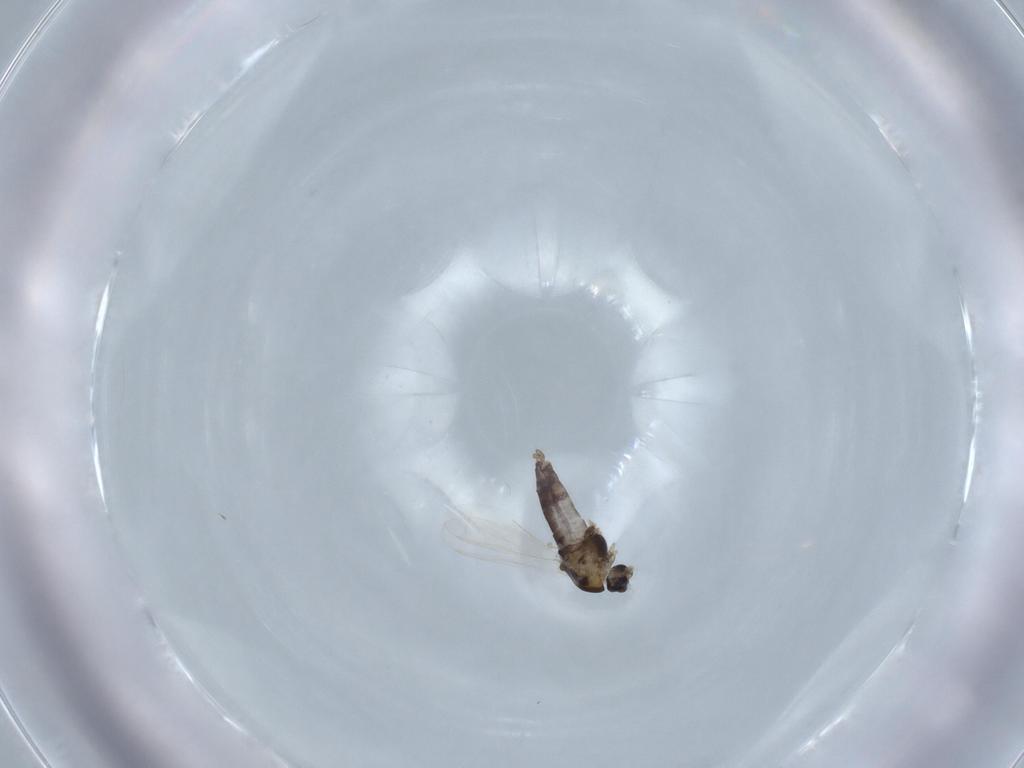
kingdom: Animalia
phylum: Arthropoda
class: Insecta
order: Diptera
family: Chironomidae
